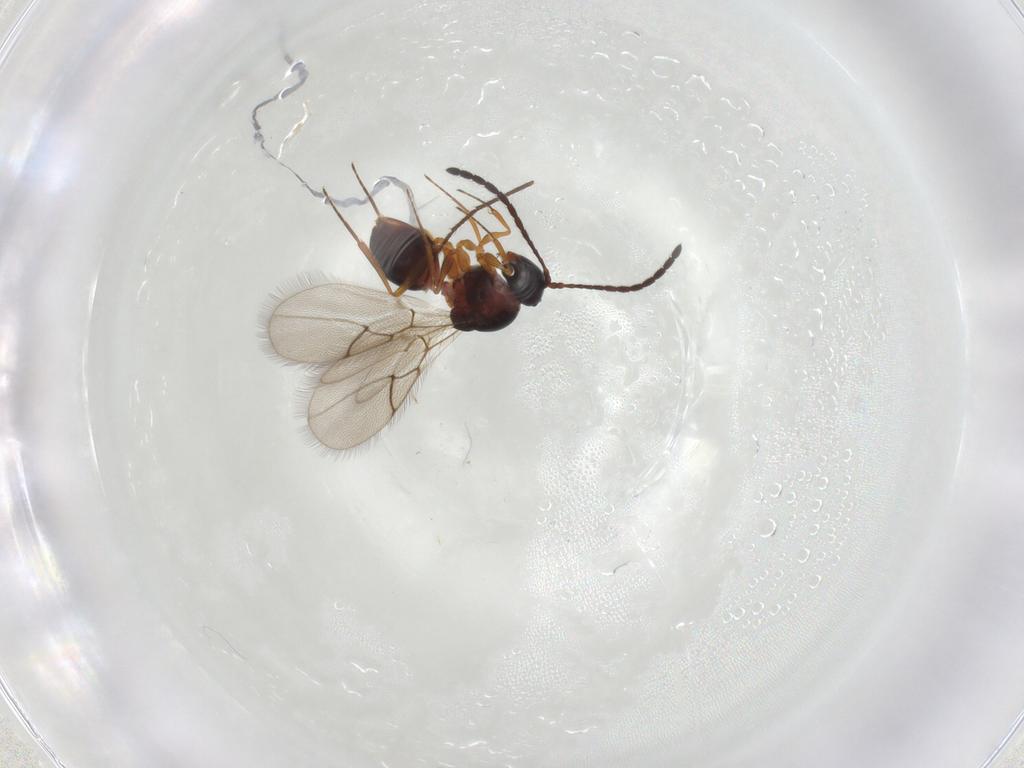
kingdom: Animalia
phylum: Arthropoda
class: Insecta
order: Hymenoptera
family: Figitidae
